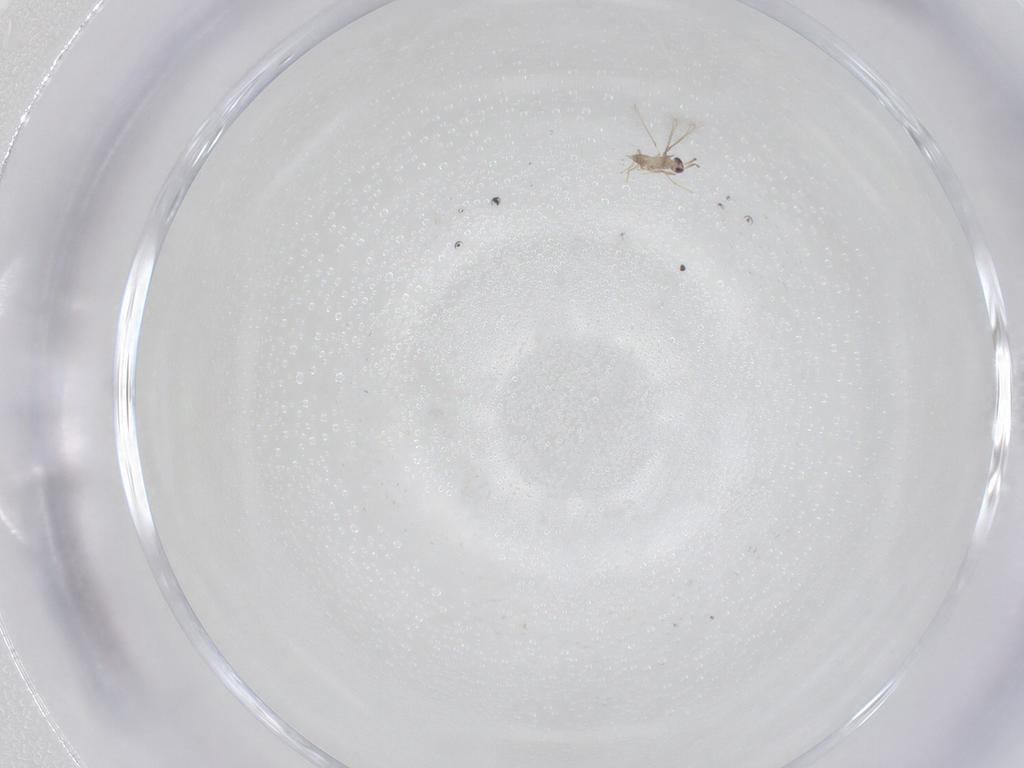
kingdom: Animalia
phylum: Arthropoda
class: Insecta
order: Hymenoptera
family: Mymaridae
